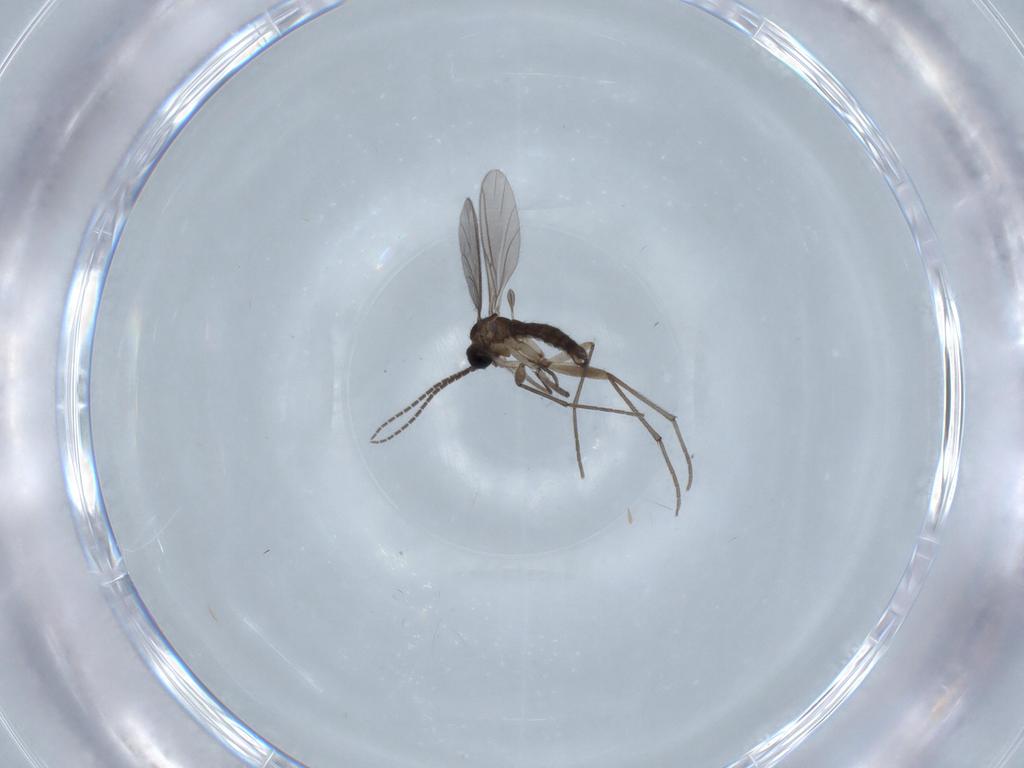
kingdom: Animalia
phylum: Arthropoda
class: Insecta
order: Diptera
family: Sciaridae
